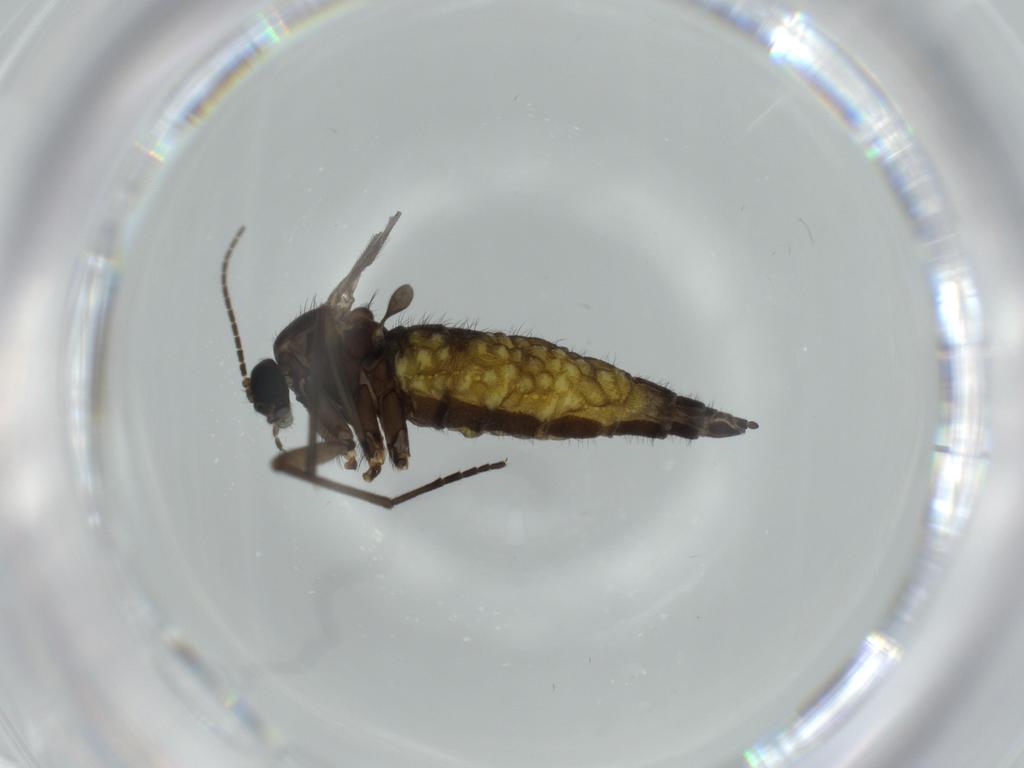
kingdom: Animalia
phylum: Arthropoda
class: Insecta
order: Diptera
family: Sciaridae
